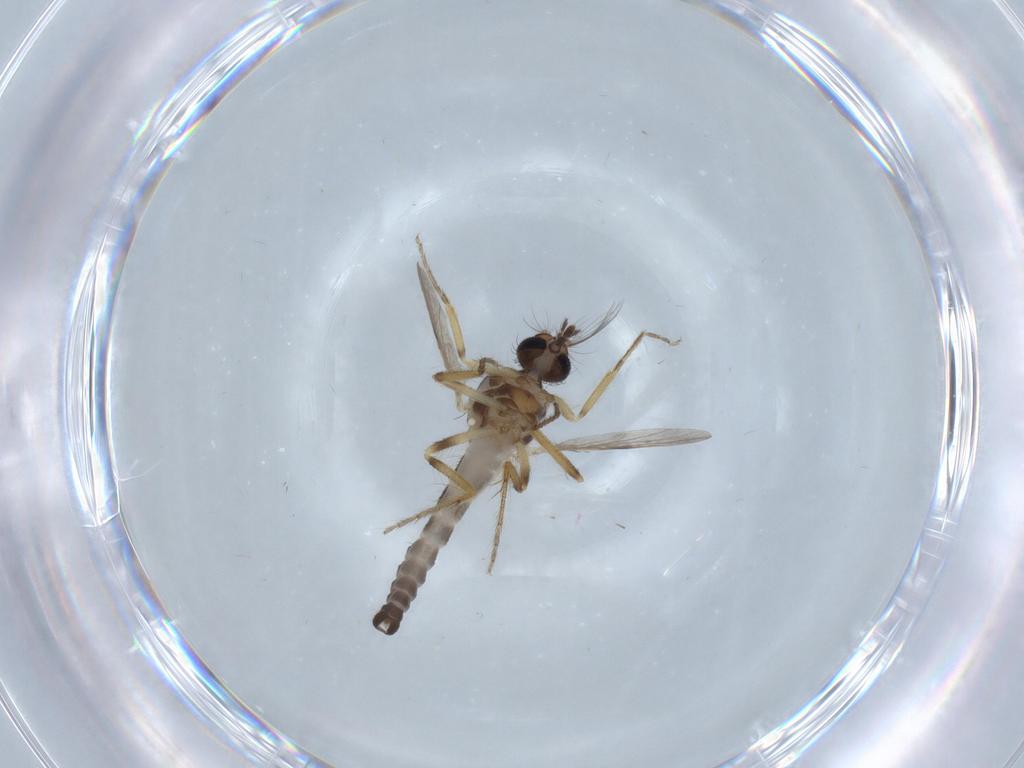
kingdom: Animalia
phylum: Arthropoda
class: Insecta
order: Diptera
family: Ceratopogonidae
